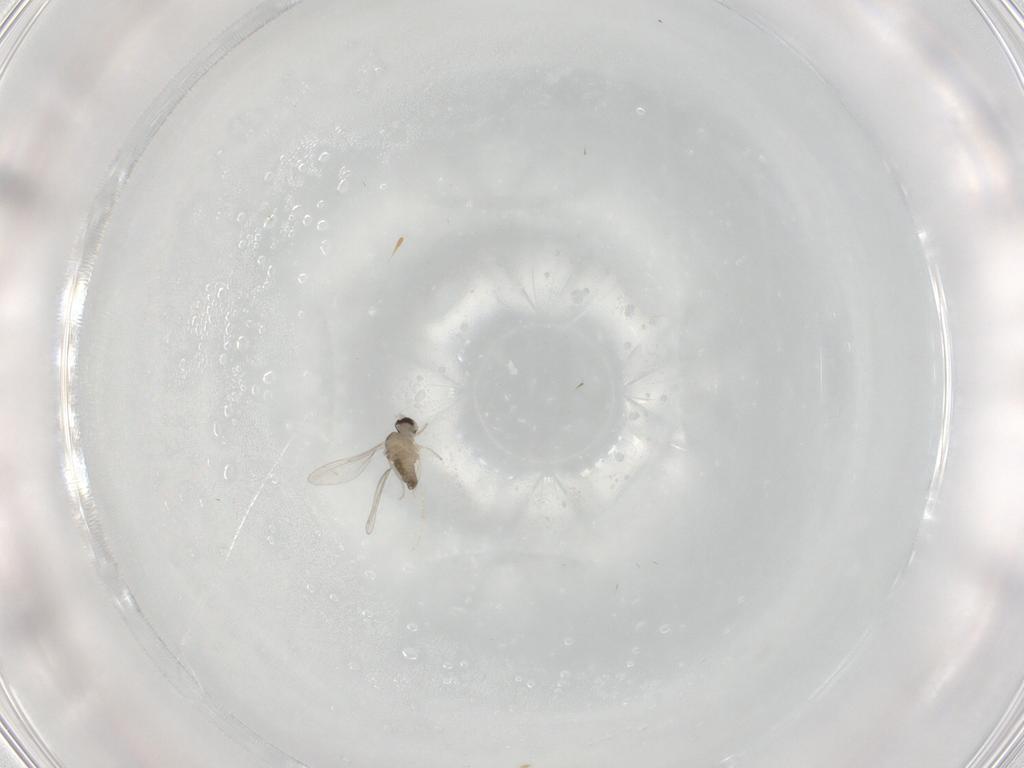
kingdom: Animalia
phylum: Arthropoda
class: Insecta
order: Diptera
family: Cecidomyiidae
